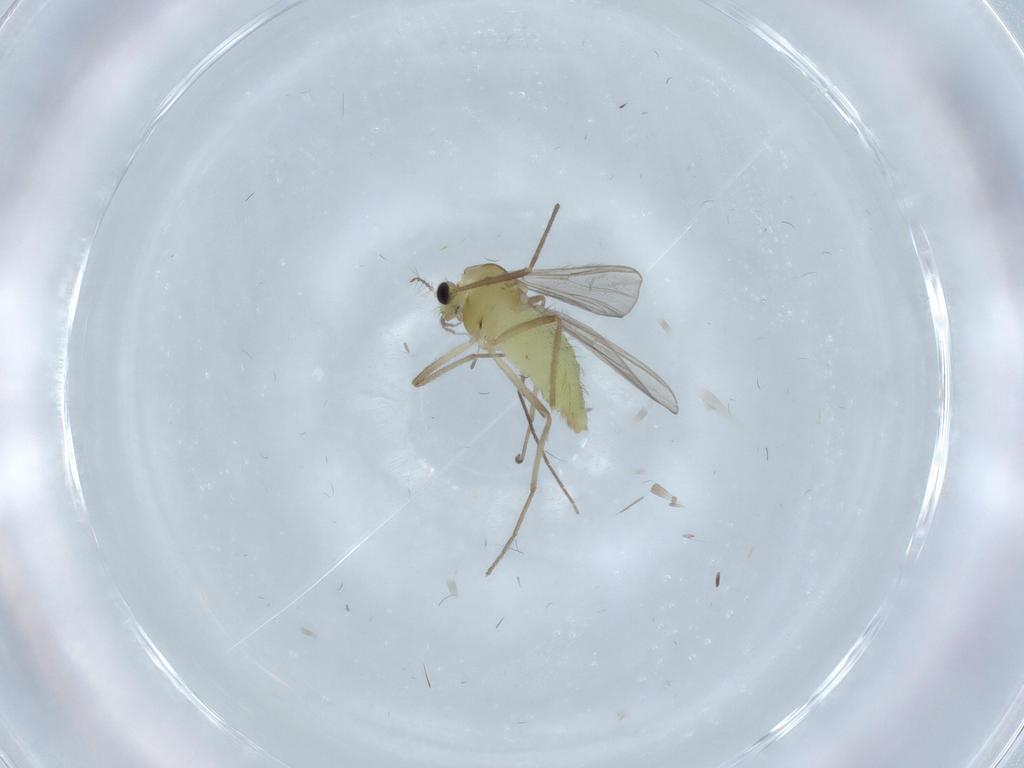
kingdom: Animalia
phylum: Arthropoda
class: Insecta
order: Diptera
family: Chironomidae
